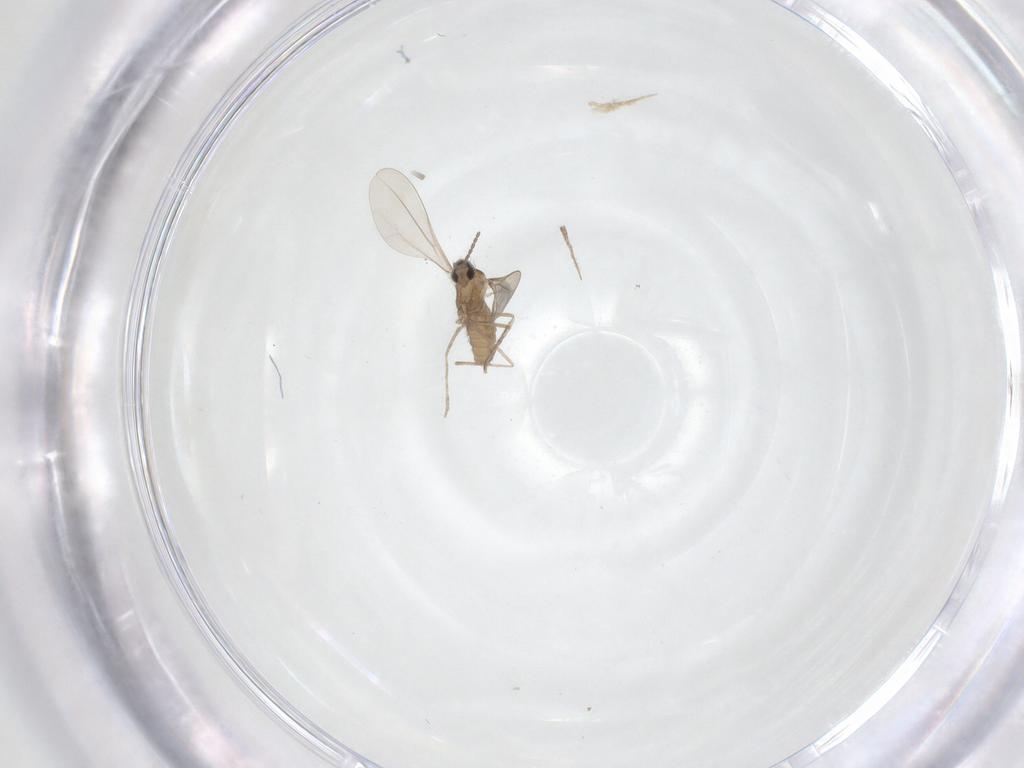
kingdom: Animalia
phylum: Arthropoda
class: Insecta
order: Diptera
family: Cecidomyiidae
